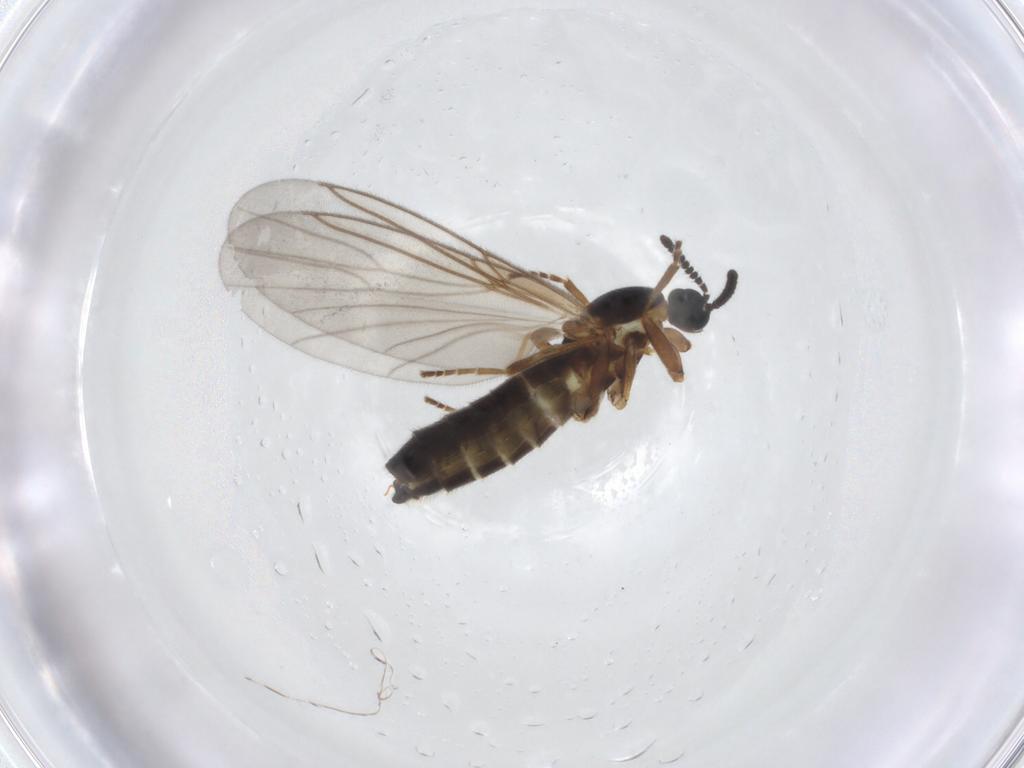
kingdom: Animalia
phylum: Arthropoda
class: Insecta
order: Diptera
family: Scatopsidae
